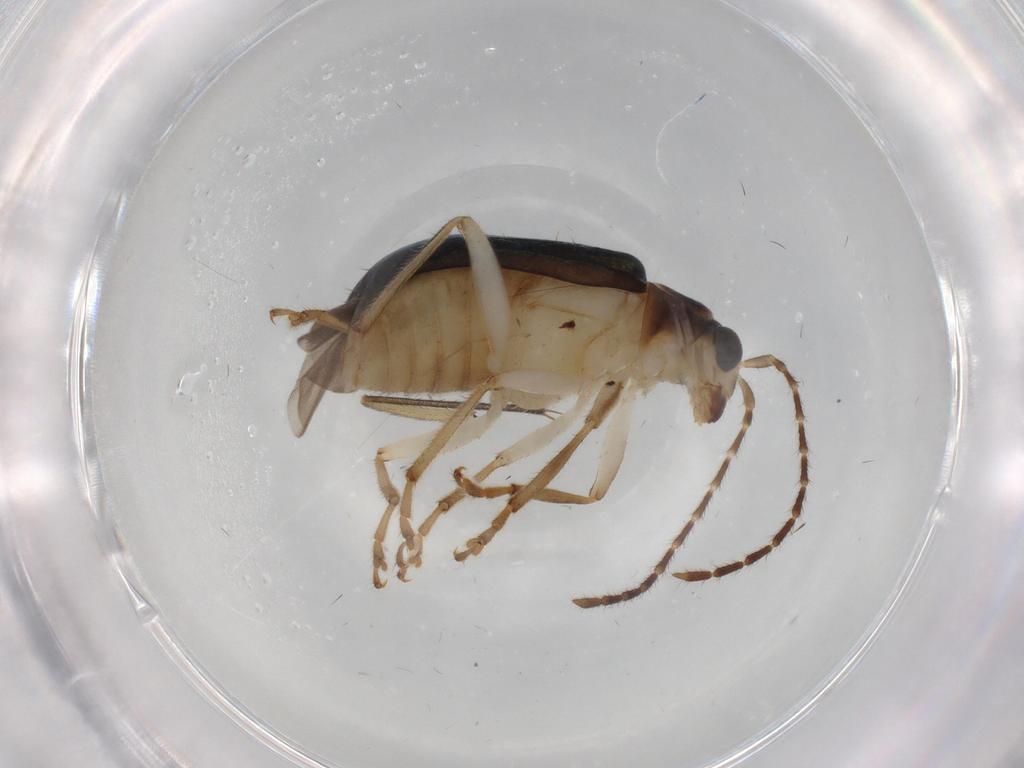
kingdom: Animalia
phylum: Arthropoda
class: Insecta
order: Coleoptera
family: Chrysomelidae
